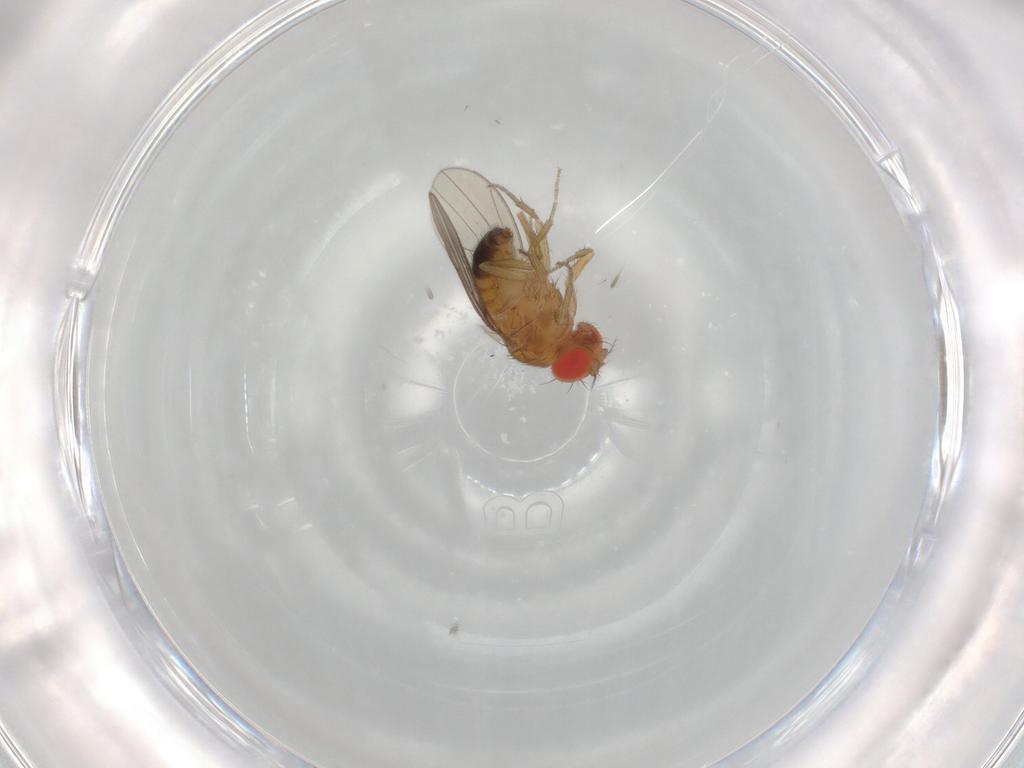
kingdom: Animalia
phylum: Arthropoda
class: Insecta
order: Diptera
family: Drosophilidae
